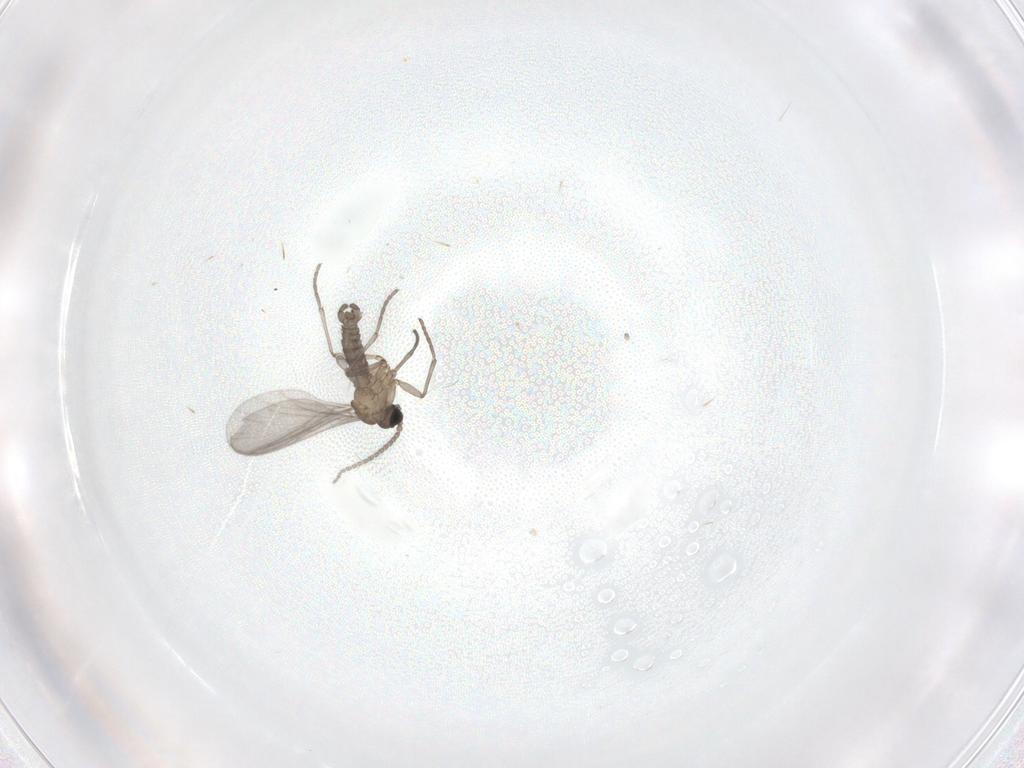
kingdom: Animalia
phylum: Arthropoda
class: Insecta
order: Diptera
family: Sciaridae
